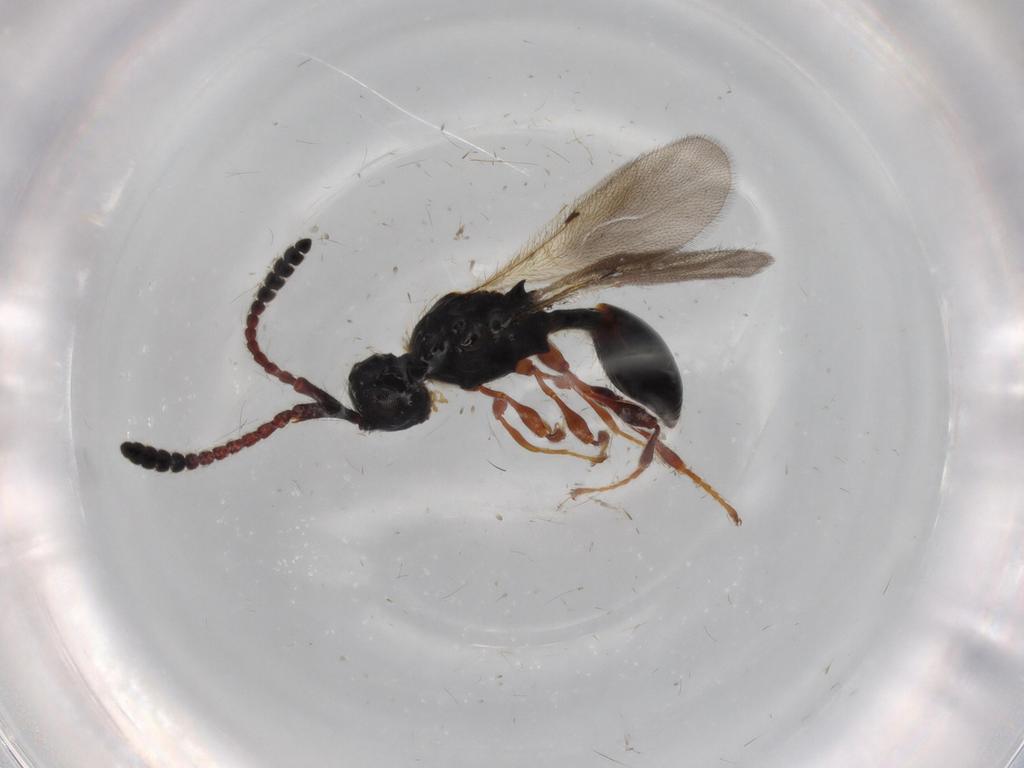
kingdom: Animalia
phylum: Arthropoda
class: Insecta
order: Hymenoptera
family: Diapriidae
